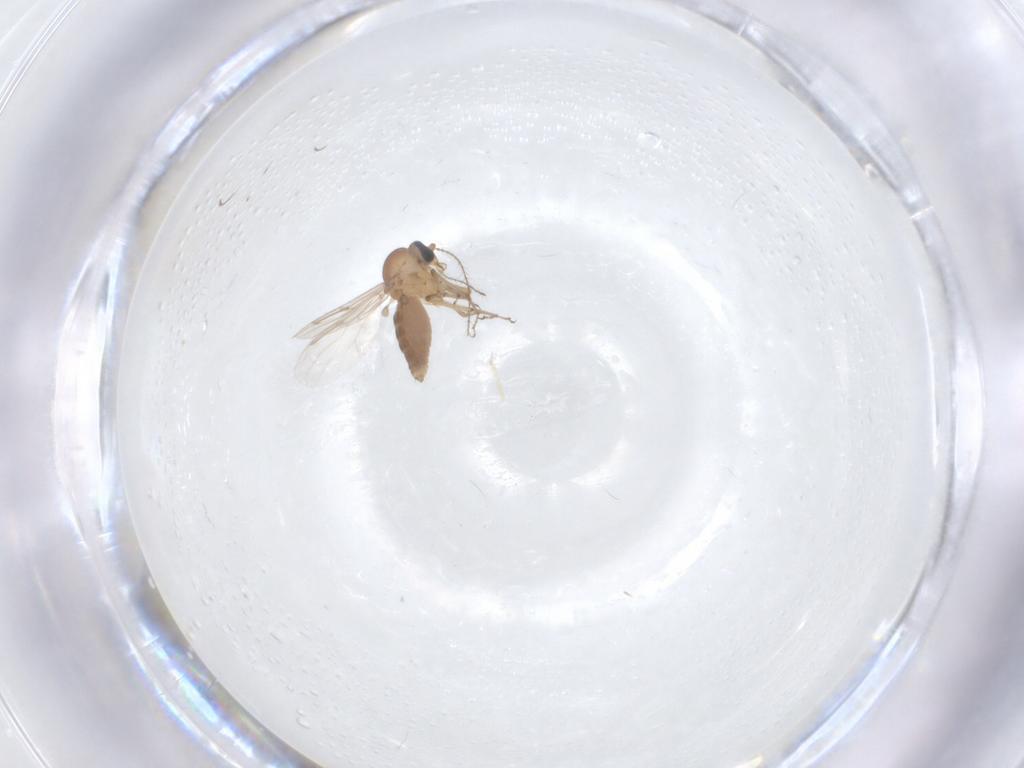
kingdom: Animalia
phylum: Arthropoda
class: Insecta
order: Diptera
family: Ceratopogonidae
